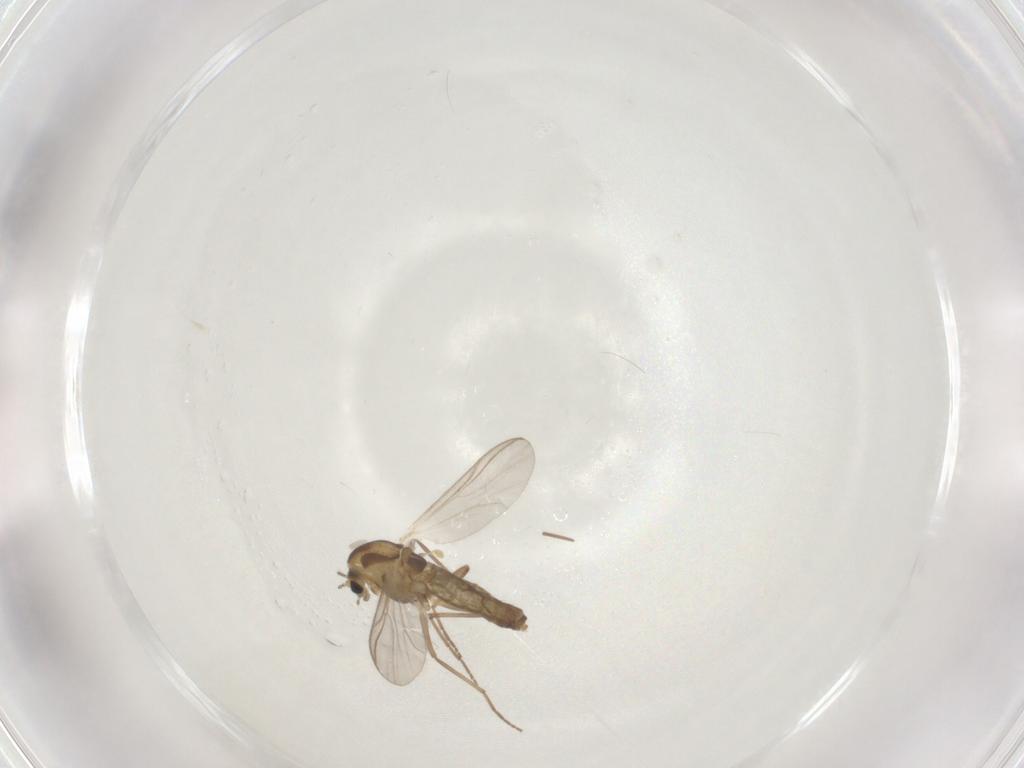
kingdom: Animalia
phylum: Arthropoda
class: Insecta
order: Diptera
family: Chironomidae
